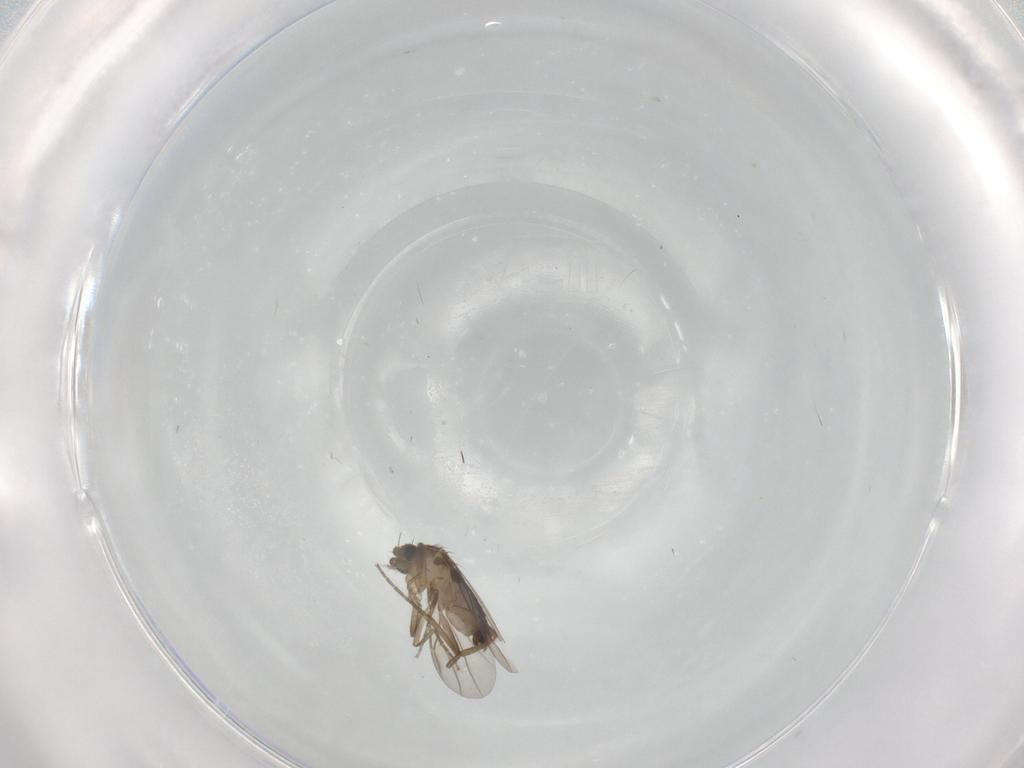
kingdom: Animalia
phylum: Arthropoda
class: Insecta
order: Diptera
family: Phoridae
